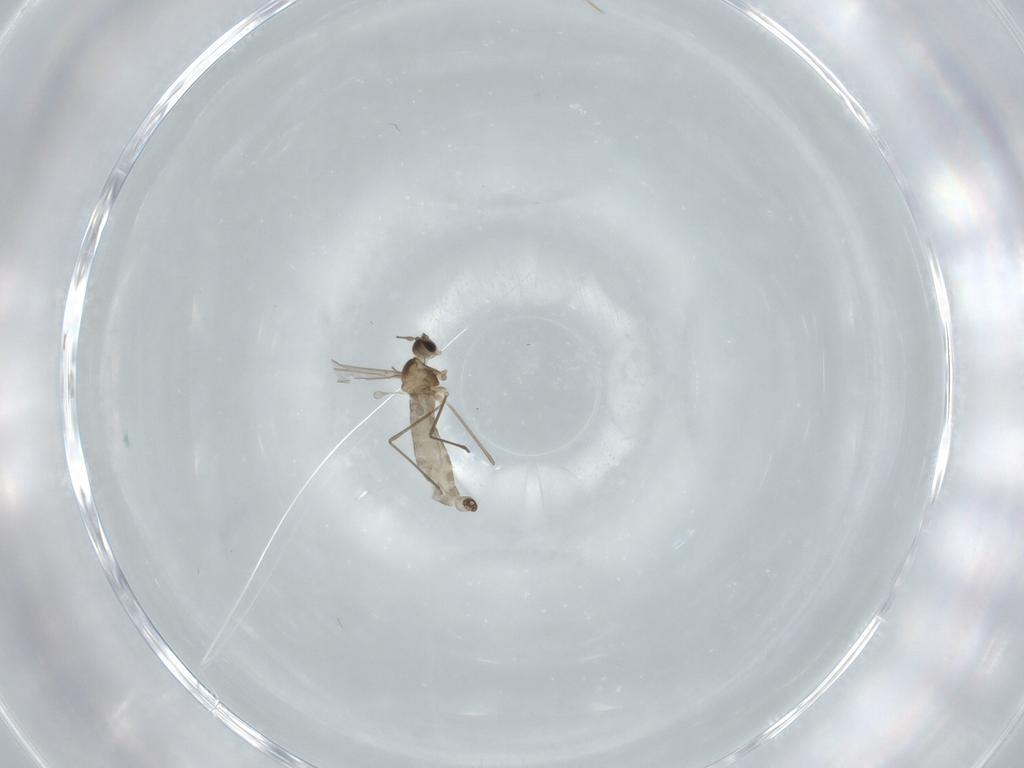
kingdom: Animalia
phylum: Arthropoda
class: Insecta
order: Diptera
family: Cecidomyiidae
